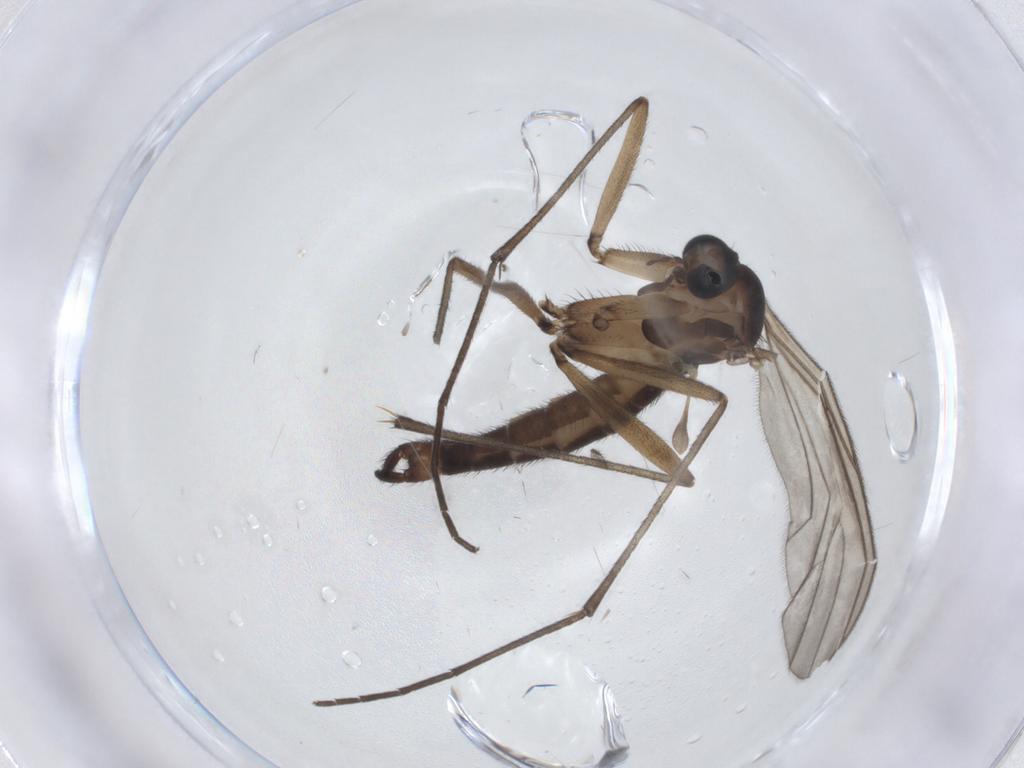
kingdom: Animalia
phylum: Arthropoda
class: Insecta
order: Diptera
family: Sciaridae
